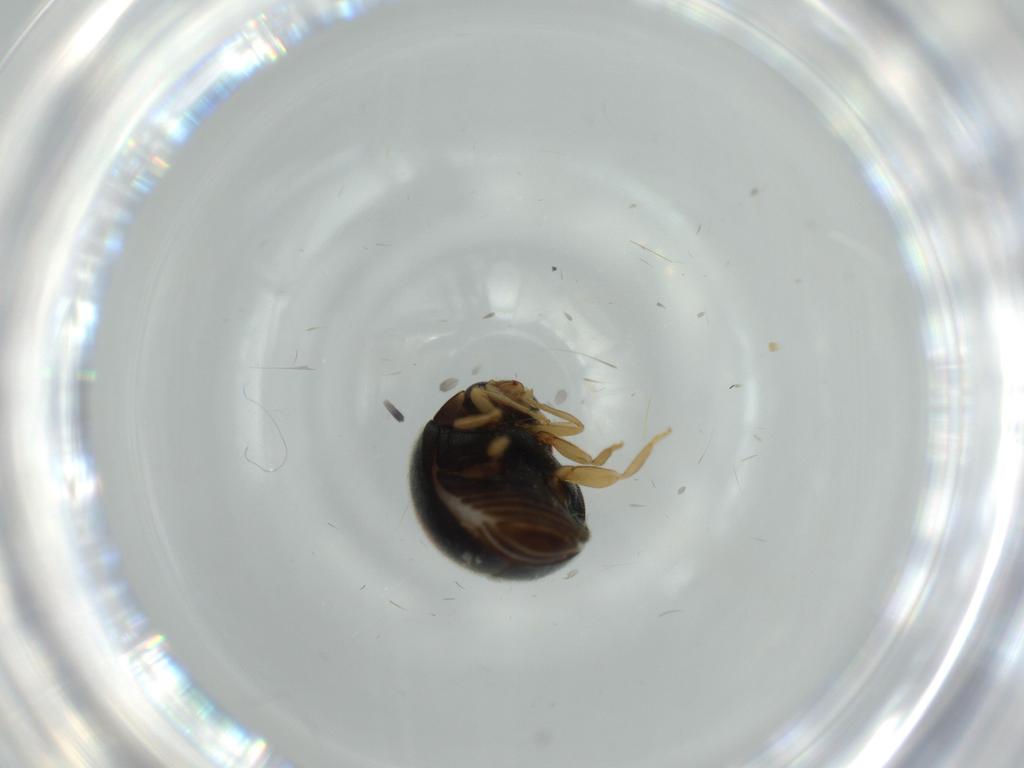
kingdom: Animalia
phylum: Arthropoda
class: Insecta
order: Coleoptera
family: Coccinellidae
